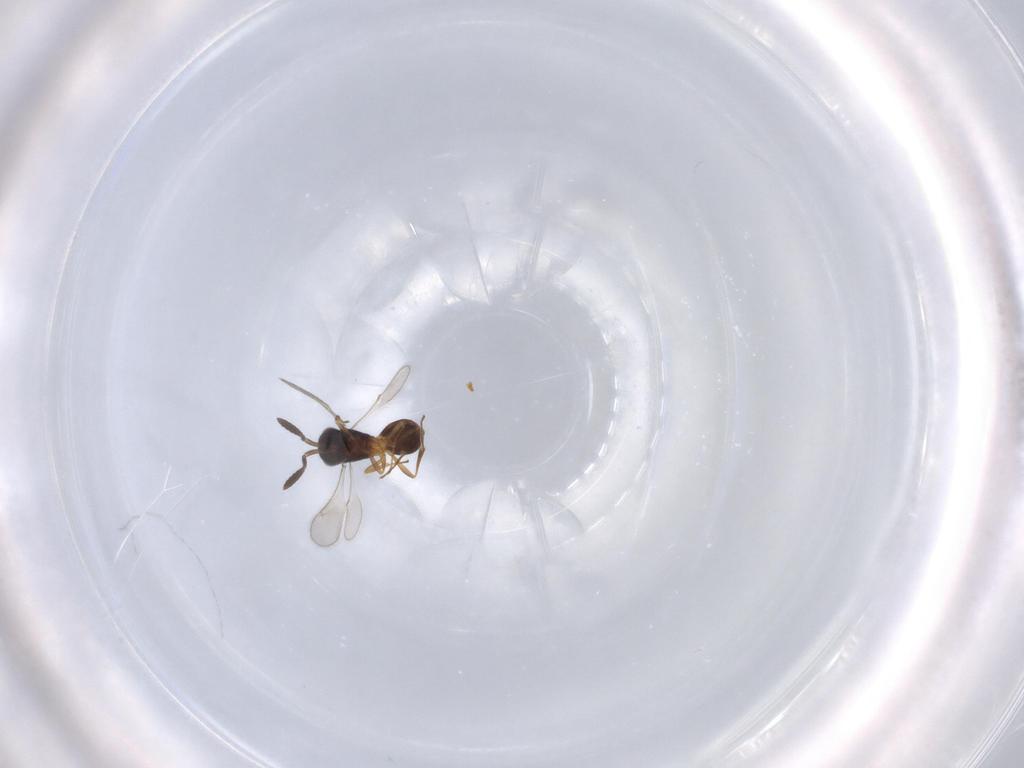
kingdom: Animalia
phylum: Arthropoda
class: Insecta
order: Hymenoptera
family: Scelionidae
